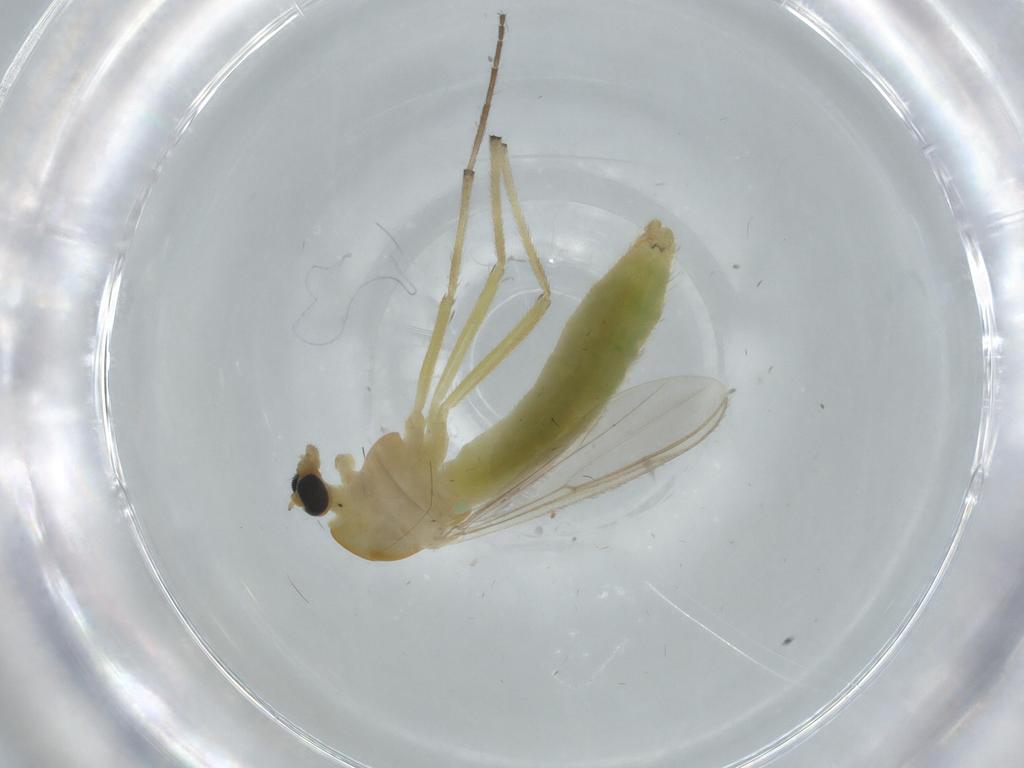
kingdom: Animalia
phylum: Arthropoda
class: Insecta
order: Diptera
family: Chironomidae
